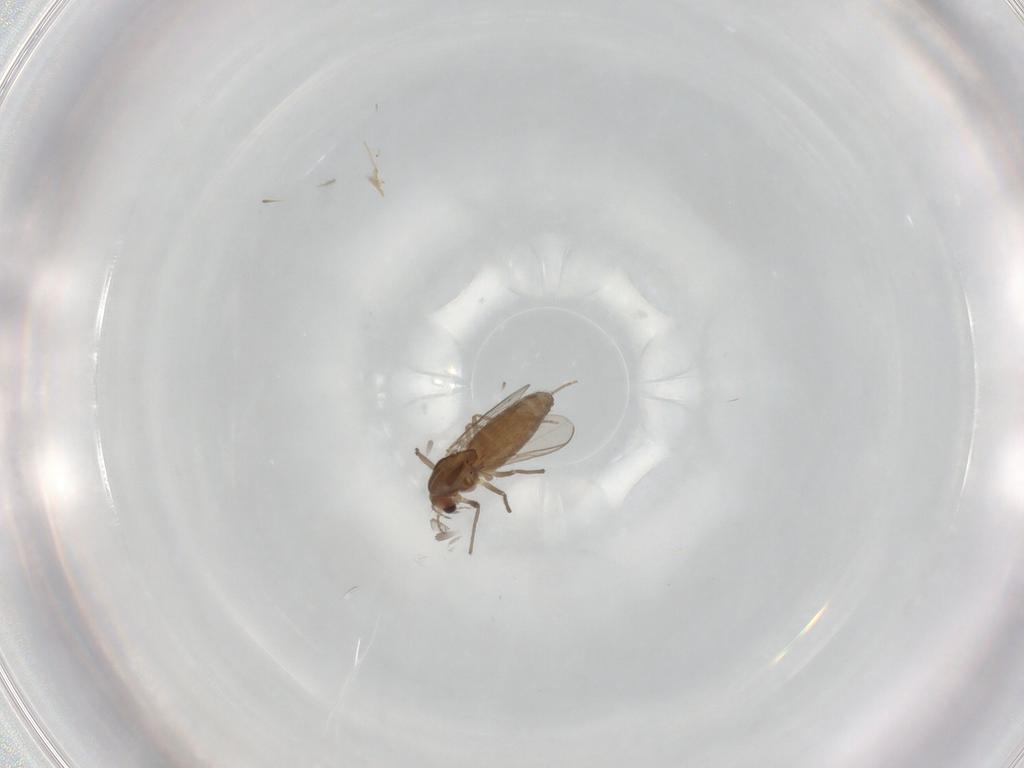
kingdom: Animalia
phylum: Arthropoda
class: Insecta
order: Diptera
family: Chironomidae
